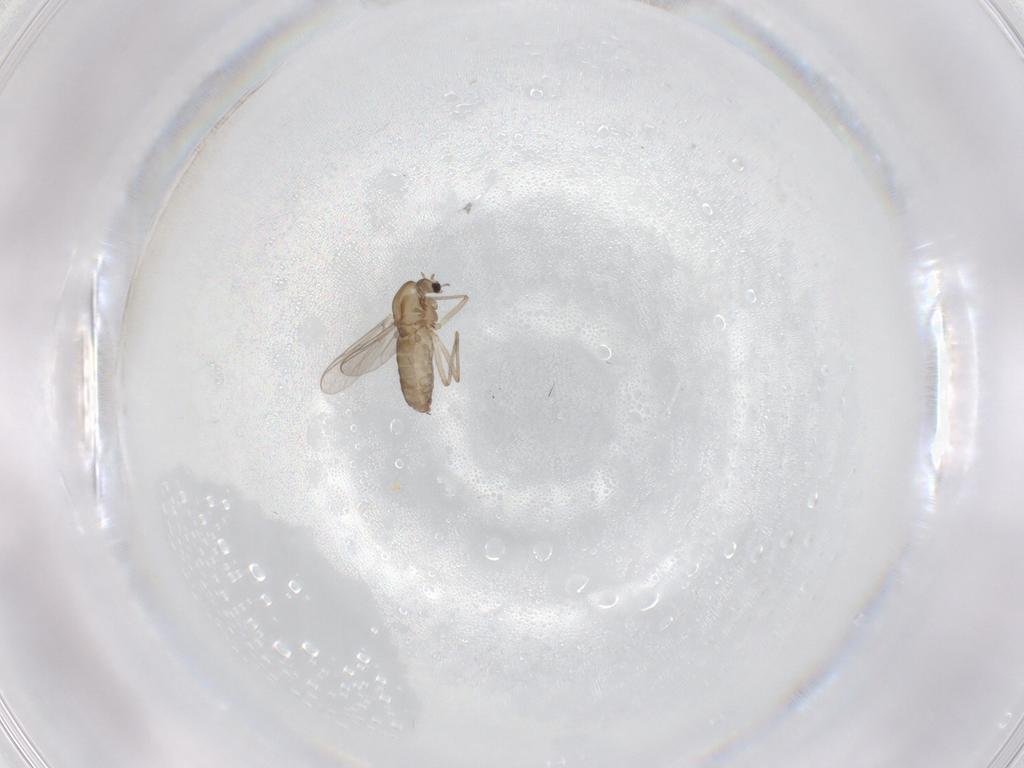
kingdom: Animalia
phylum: Arthropoda
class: Insecta
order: Diptera
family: Chironomidae
